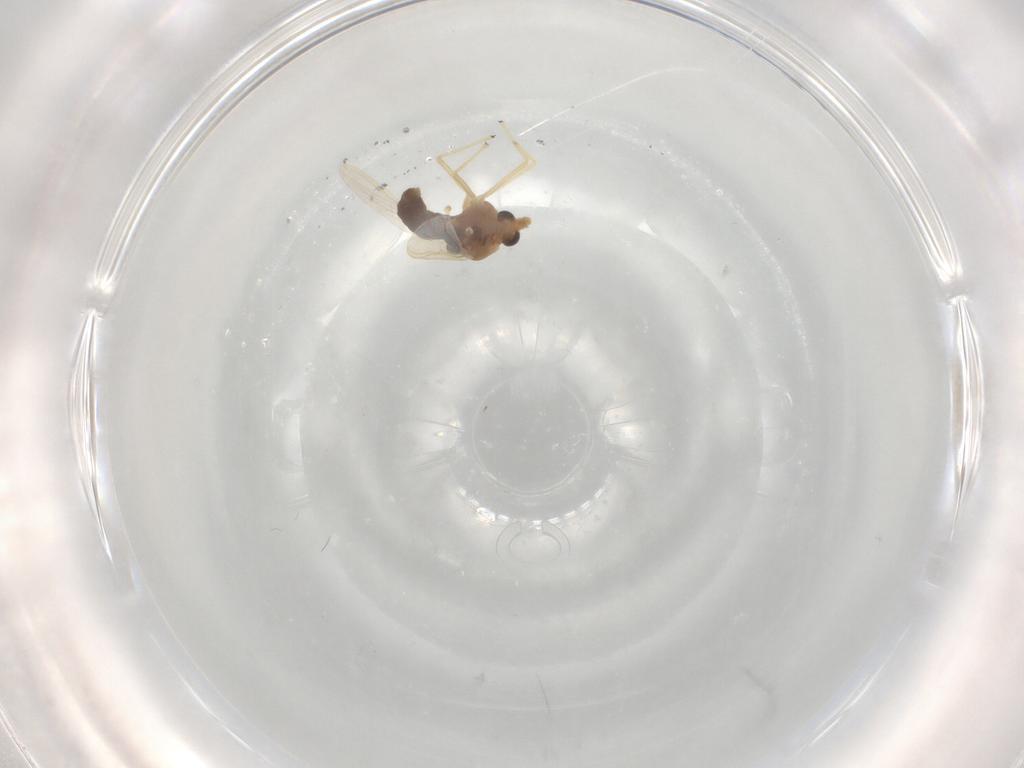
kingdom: Animalia
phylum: Arthropoda
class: Insecta
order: Diptera
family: Chironomidae
